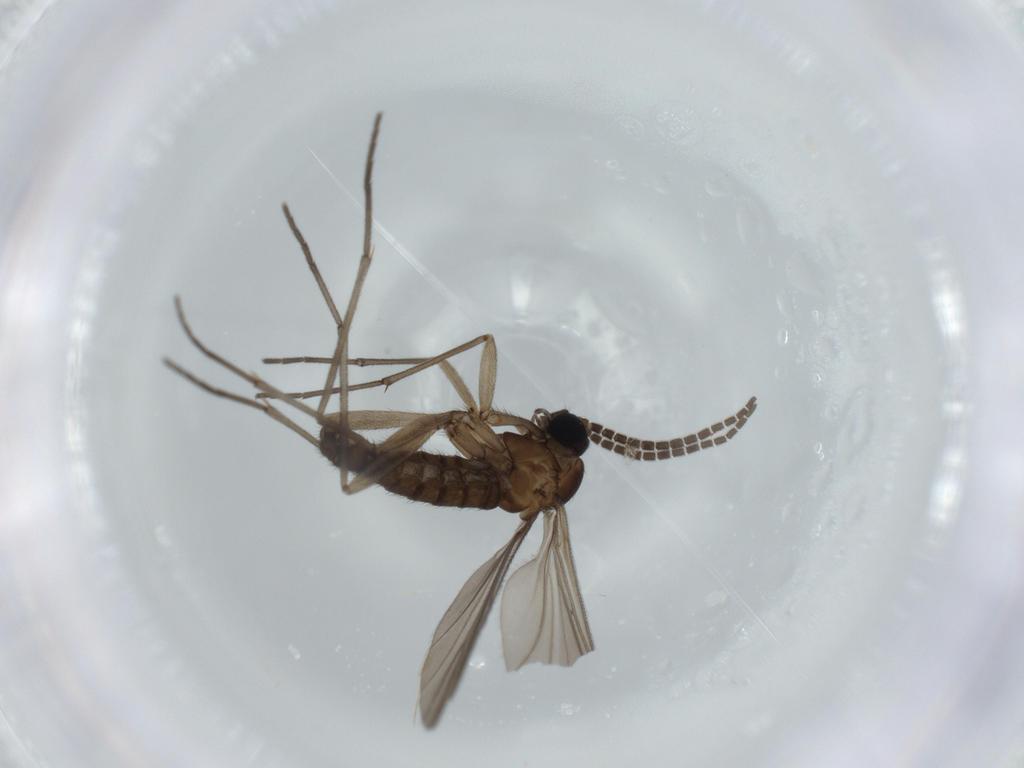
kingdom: Animalia
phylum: Arthropoda
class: Insecta
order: Diptera
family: Sciaridae
